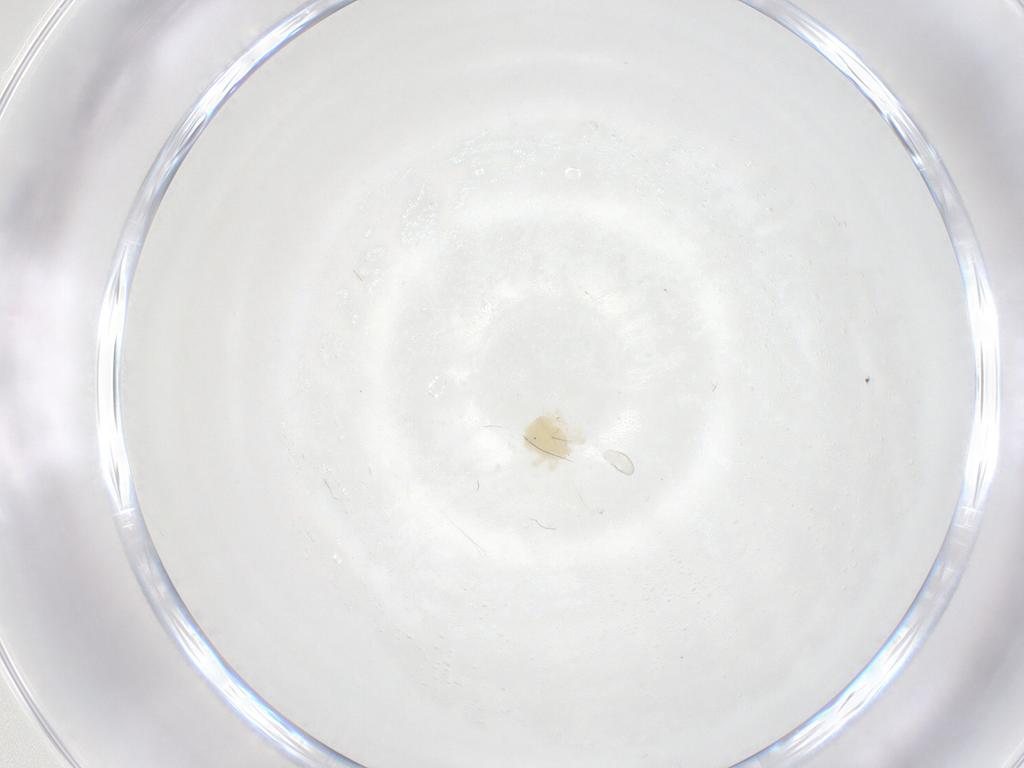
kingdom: Animalia
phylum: Arthropoda
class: Arachnida
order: Trombidiformes
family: Anystidae
